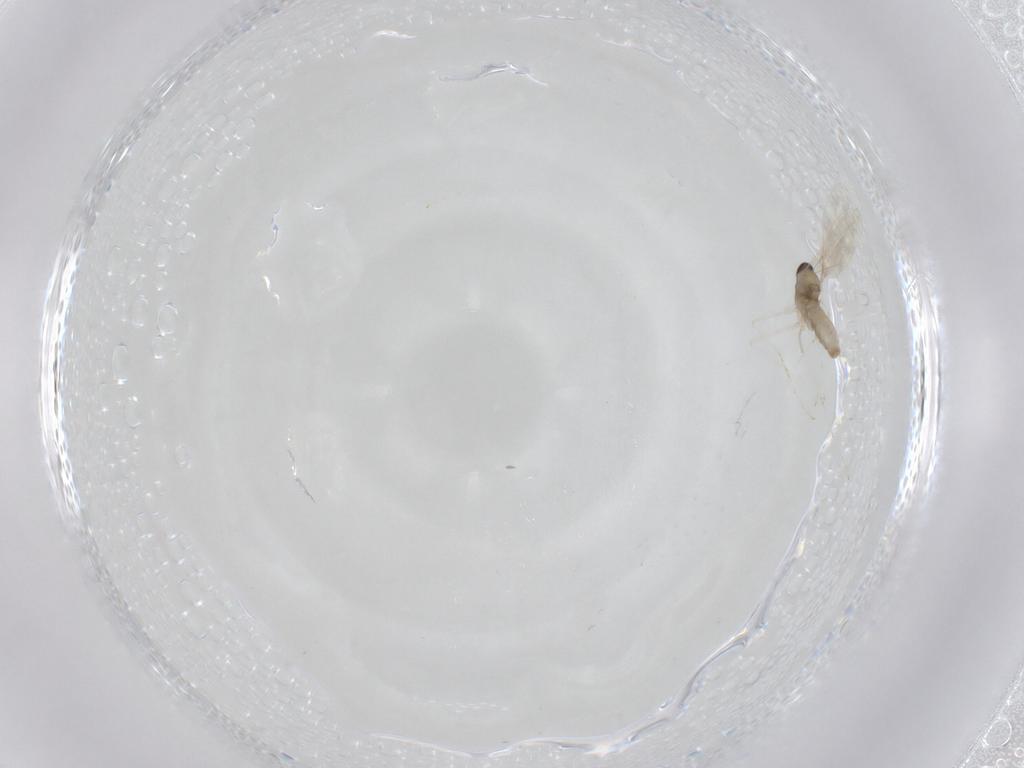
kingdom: Animalia
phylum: Arthropoda
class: Insecta
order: Diptera
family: Cecidomyiidae
